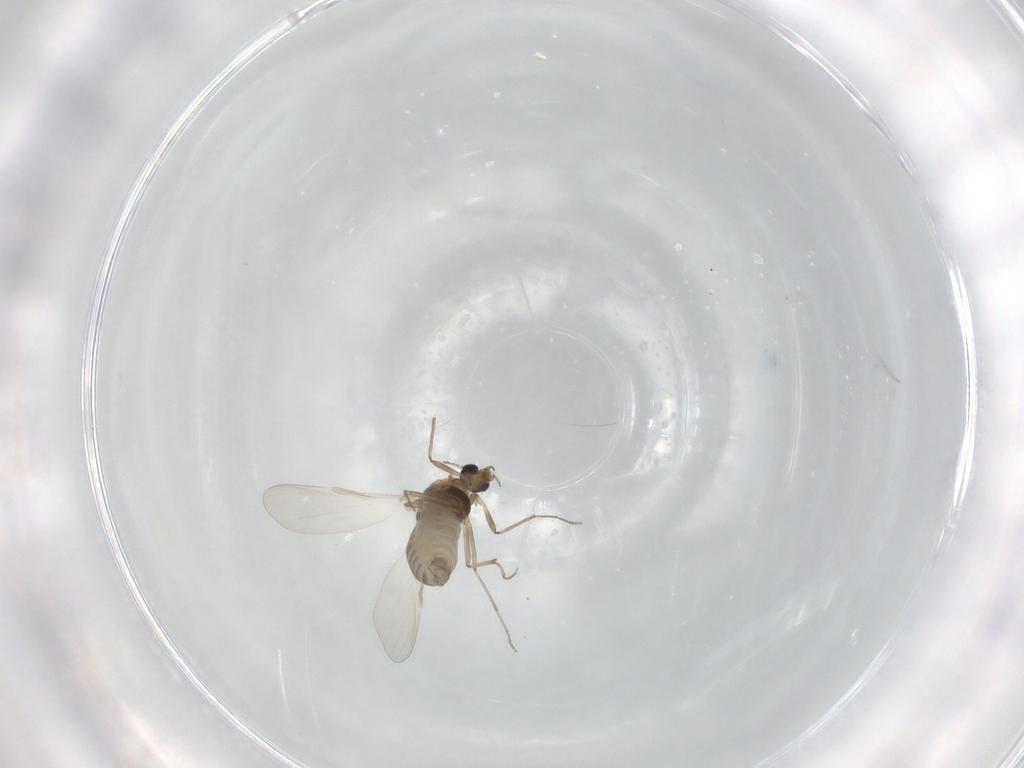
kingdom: Animalia
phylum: Arthropoda
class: Insecta
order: Diptera
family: Chironomidae
